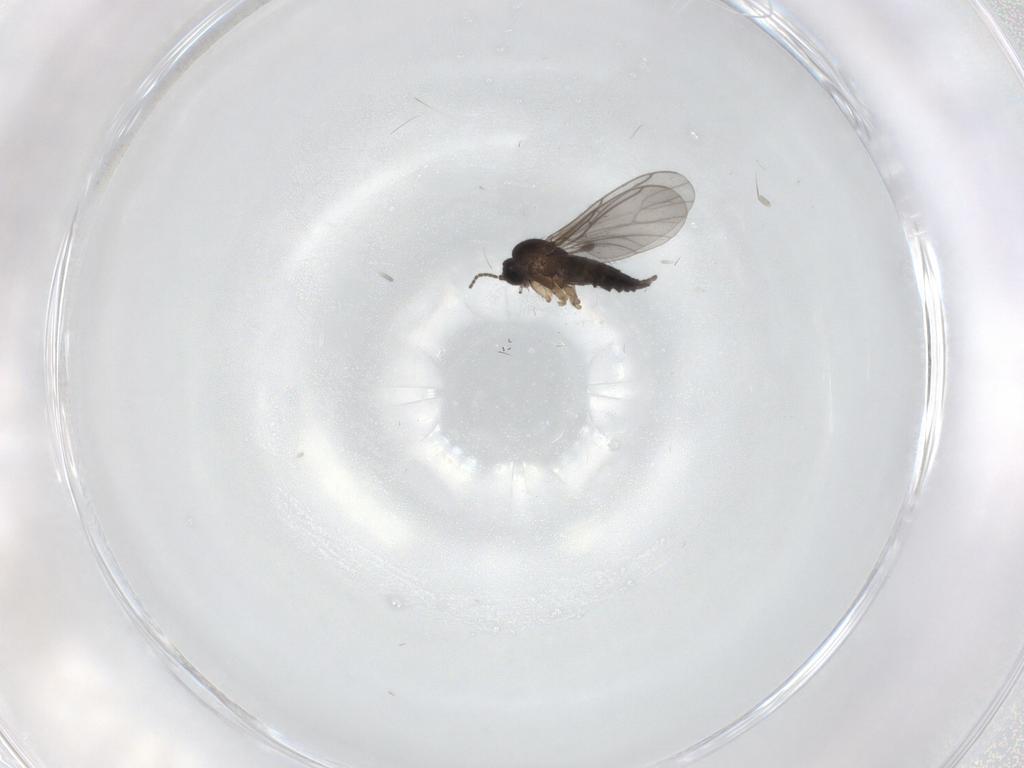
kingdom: Animalia
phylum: Arthropoda
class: Insecta
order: Diptera
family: Sciaridae
